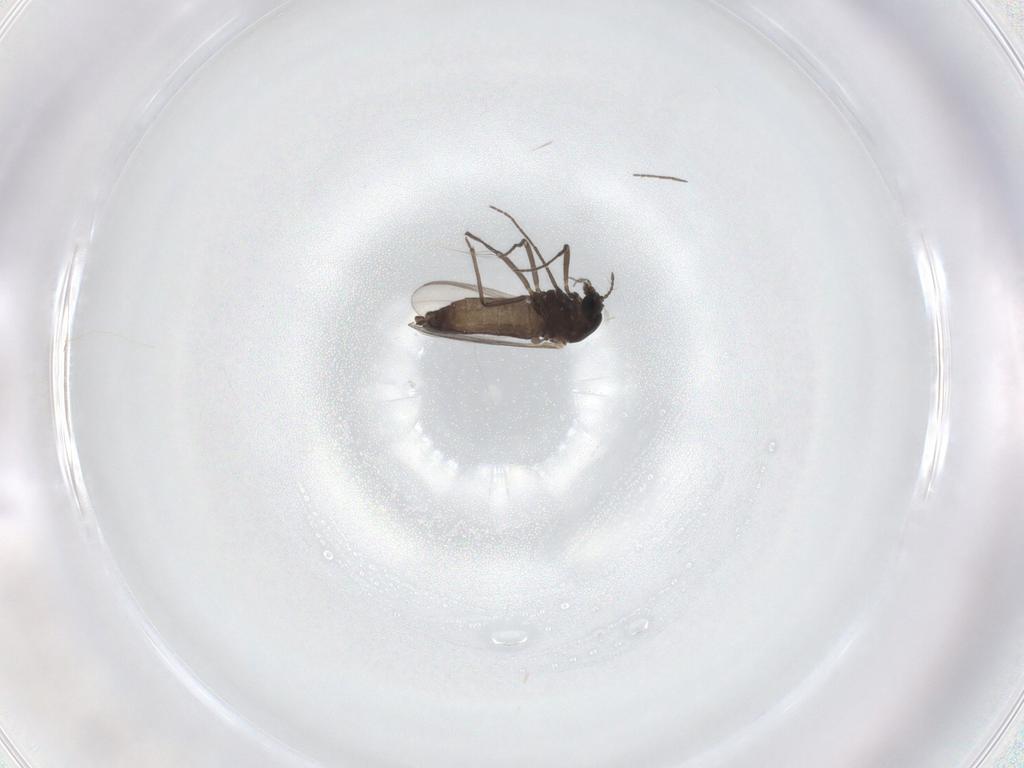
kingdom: Animalia
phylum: Arthropoda
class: Insecta
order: Diptera
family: Chironomidae
